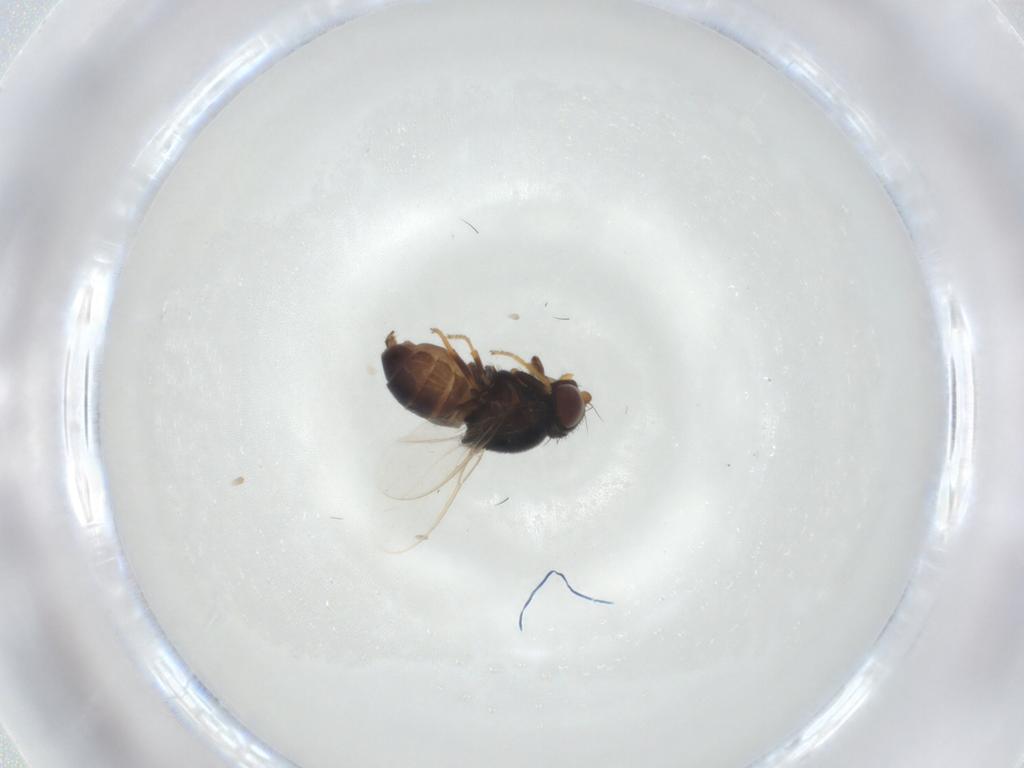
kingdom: Animalia
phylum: Arthropoda
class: Insecta
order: Diptera
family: Chloropidae
